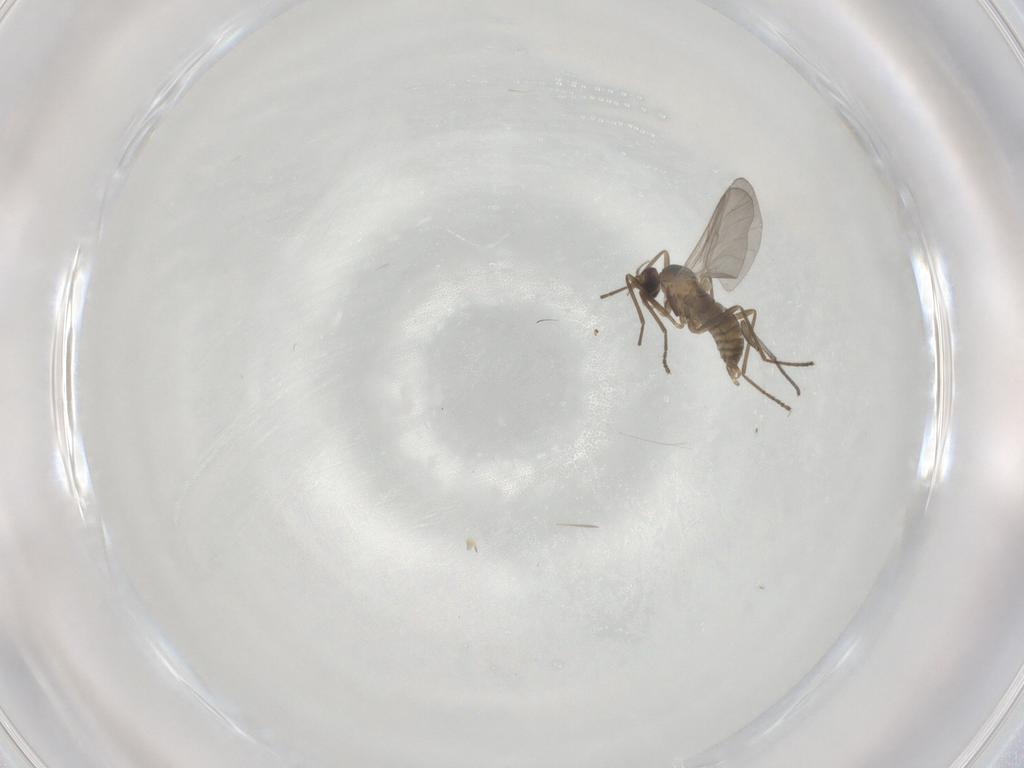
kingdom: Animalia
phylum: Arthropoda
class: Insecta
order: Diptera
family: Cecidomyiidae
